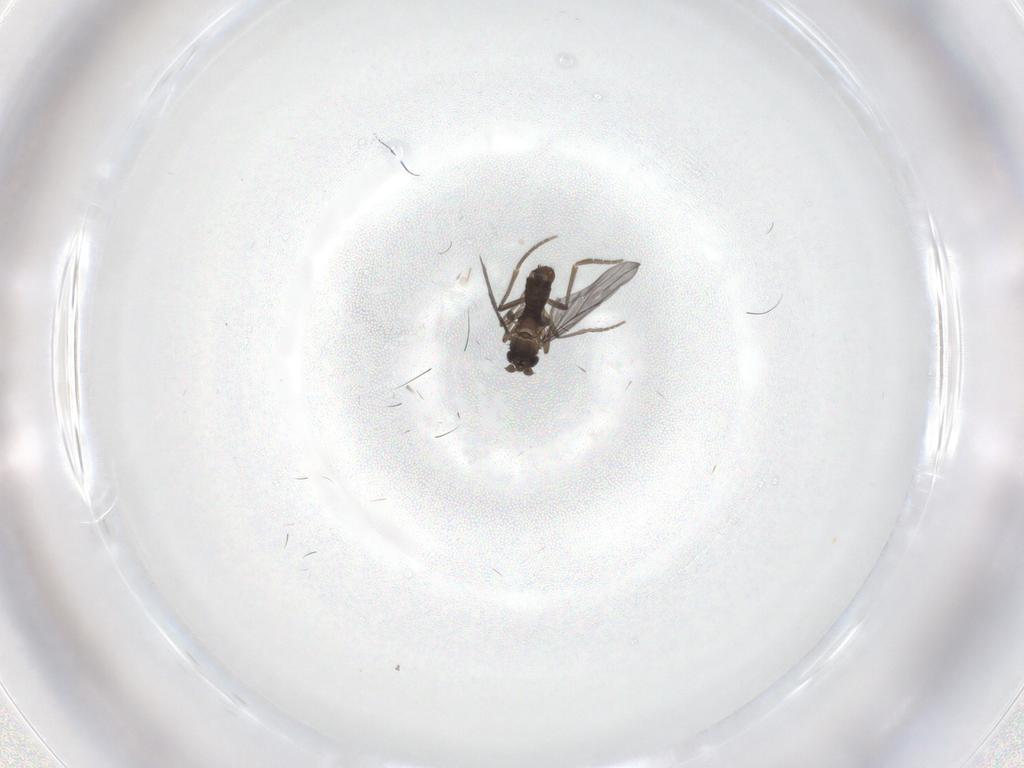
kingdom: Animalia
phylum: Arthropoda
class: Insecta
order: Diptera
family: Phoridae
